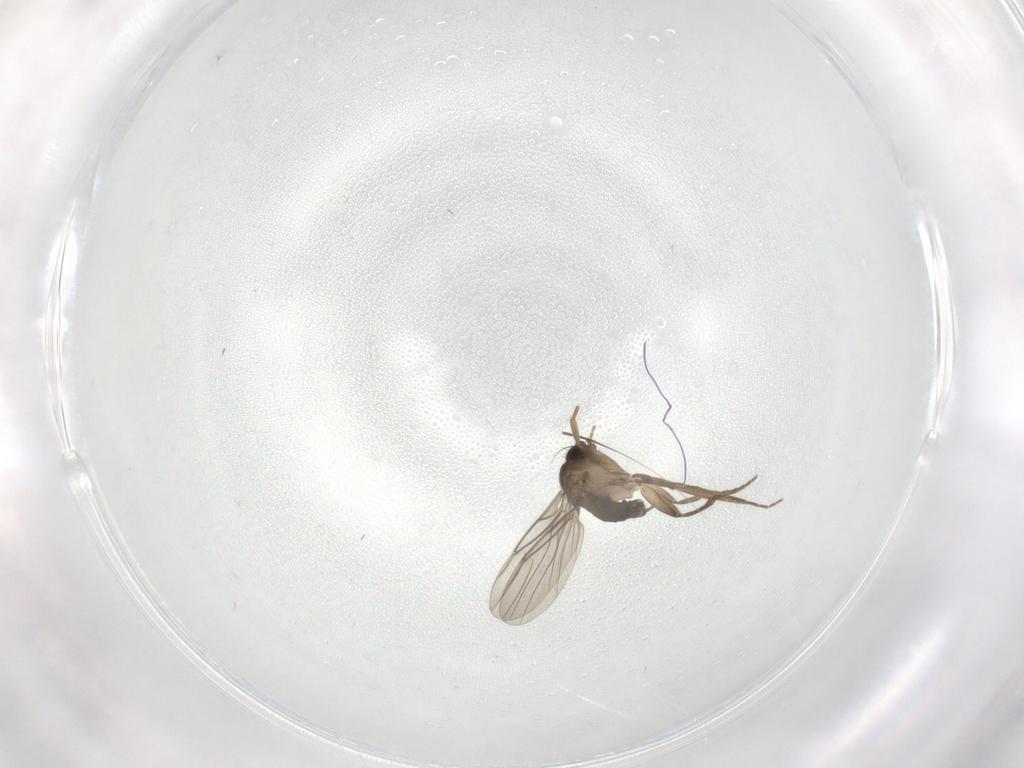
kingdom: Animalia
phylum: Arthropoda
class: Insecta
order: Diptera
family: Phoridae
